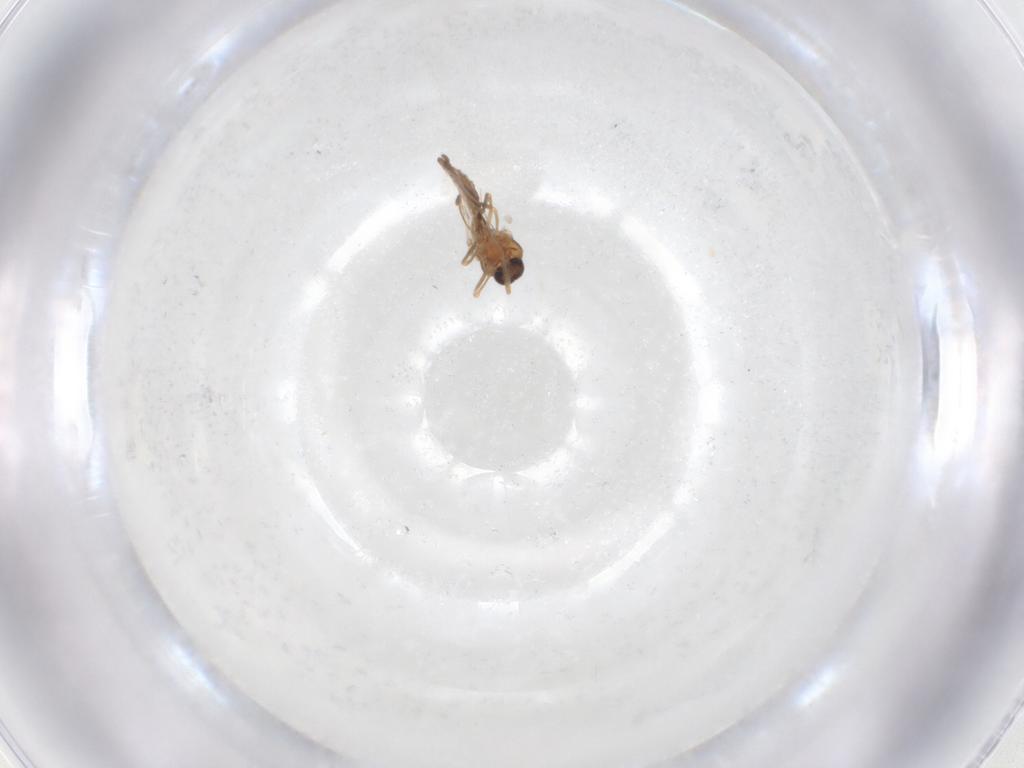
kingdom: Animalia
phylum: Arthropoda
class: Insecta
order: Diptera
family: Ceratopogonidae
